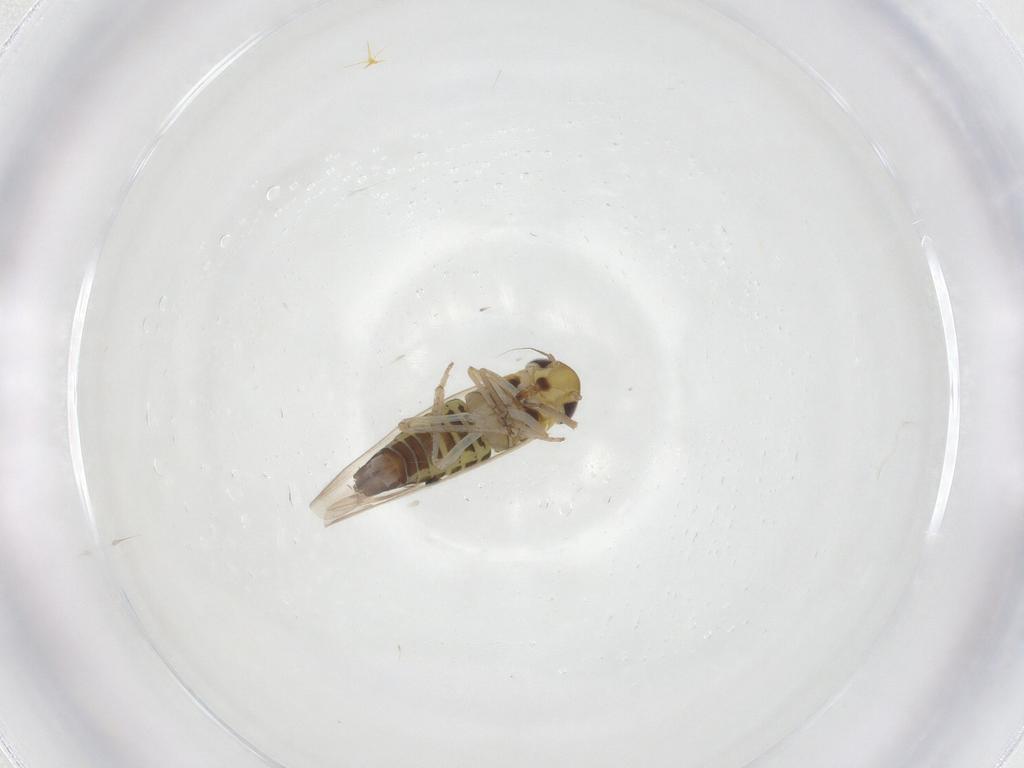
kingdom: Animalia
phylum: Arthropoda
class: Insecta
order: Hemiptera
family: Cicadellidae
